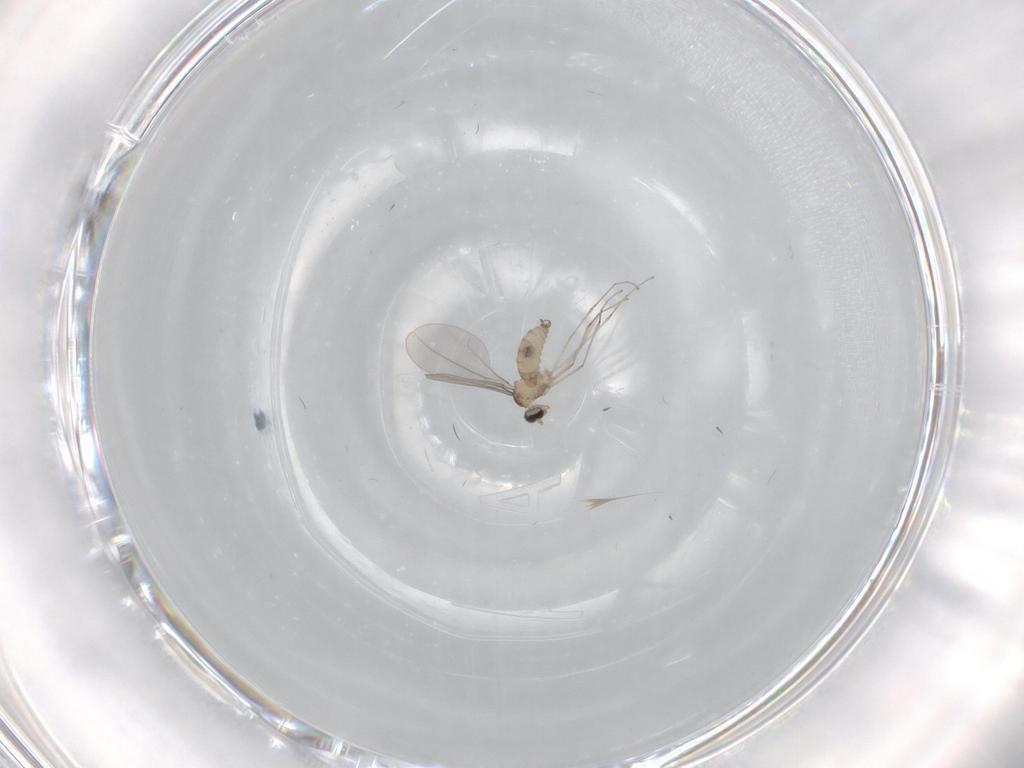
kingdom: Animalia
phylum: Arthropoda
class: Insecta
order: Diptera
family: Cecidomyiidae
